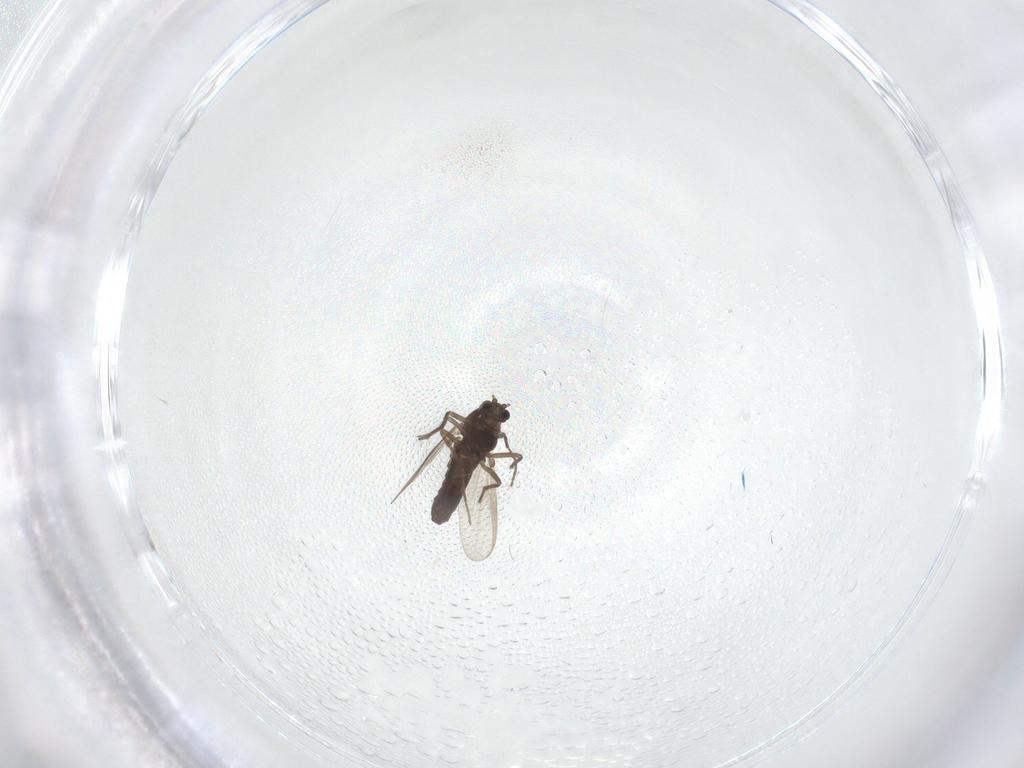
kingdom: Animalia
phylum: Arthropoda
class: Insecta
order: Diptera
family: Chironomidae
